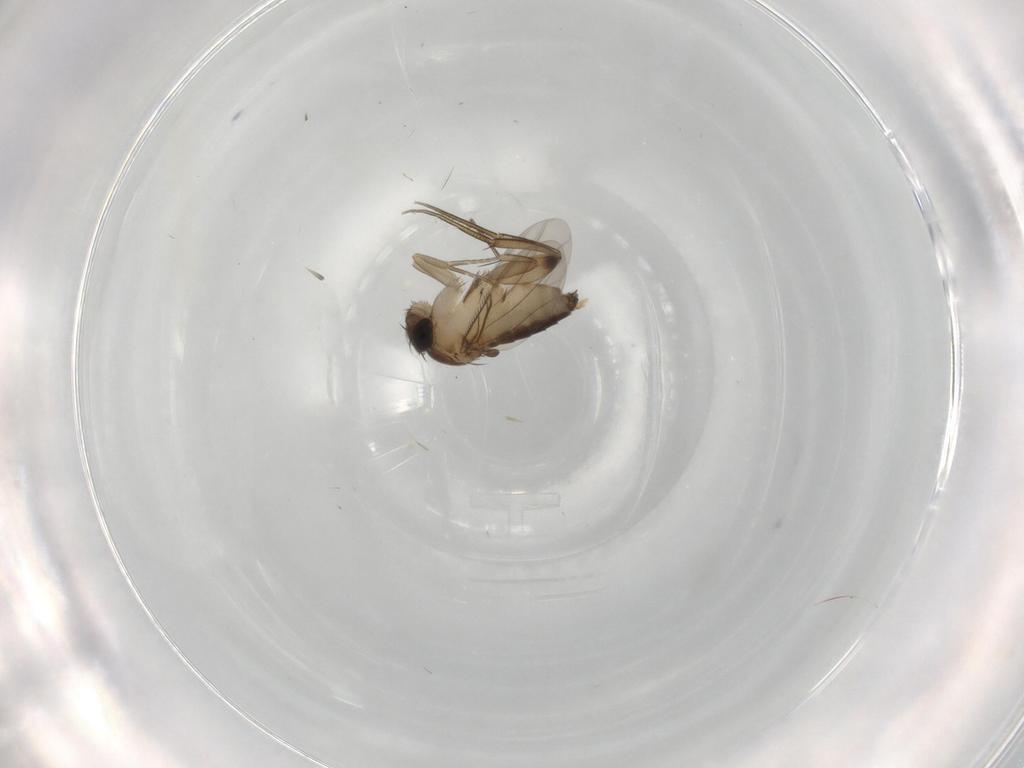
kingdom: Animalia
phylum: Arthropoda
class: Insecta
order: Diptera
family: Phoridae
